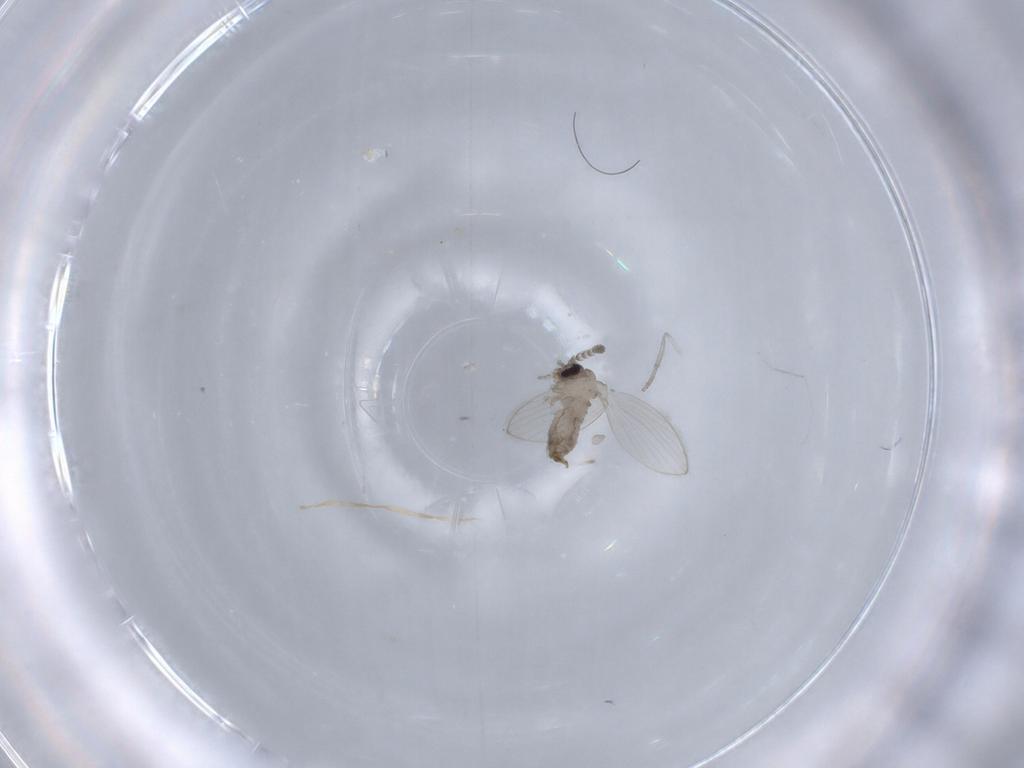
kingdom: Animalia
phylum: Arthropoda
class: Insecta
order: Diptera
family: Psychodidae
